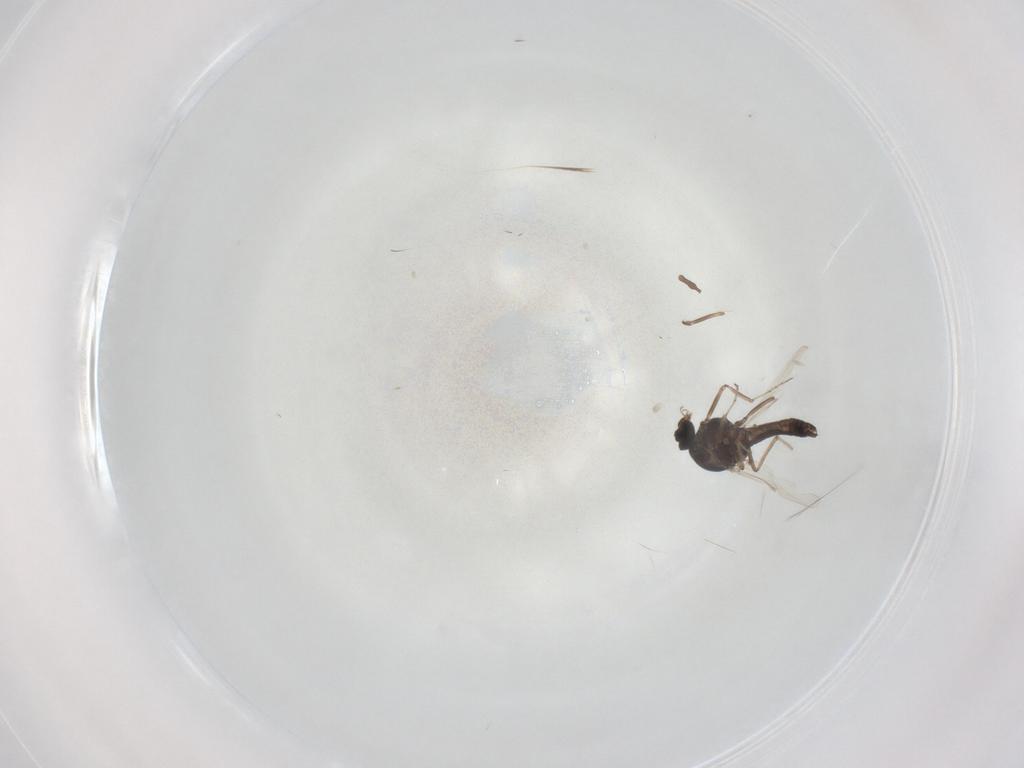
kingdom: Animalia
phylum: Arthropoda
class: Insecta
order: Diptera
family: Ceratopogonidae
